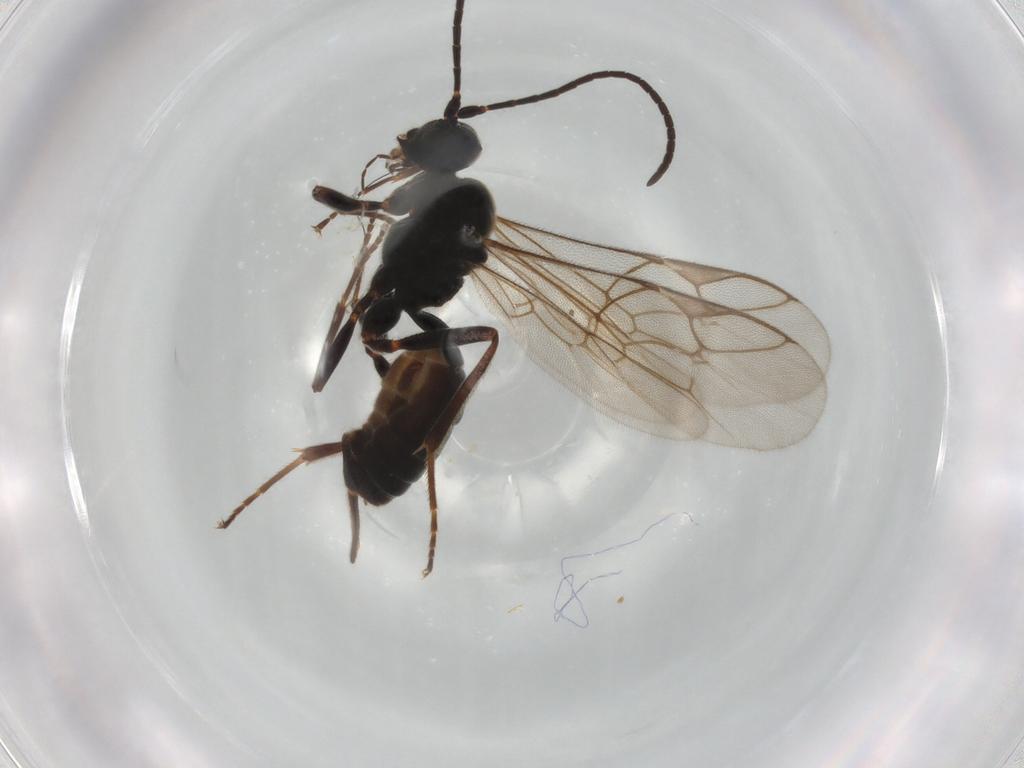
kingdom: Animalia
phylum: Arthropoda
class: Insecta
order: Hymenoptera
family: Ichneumonidae
